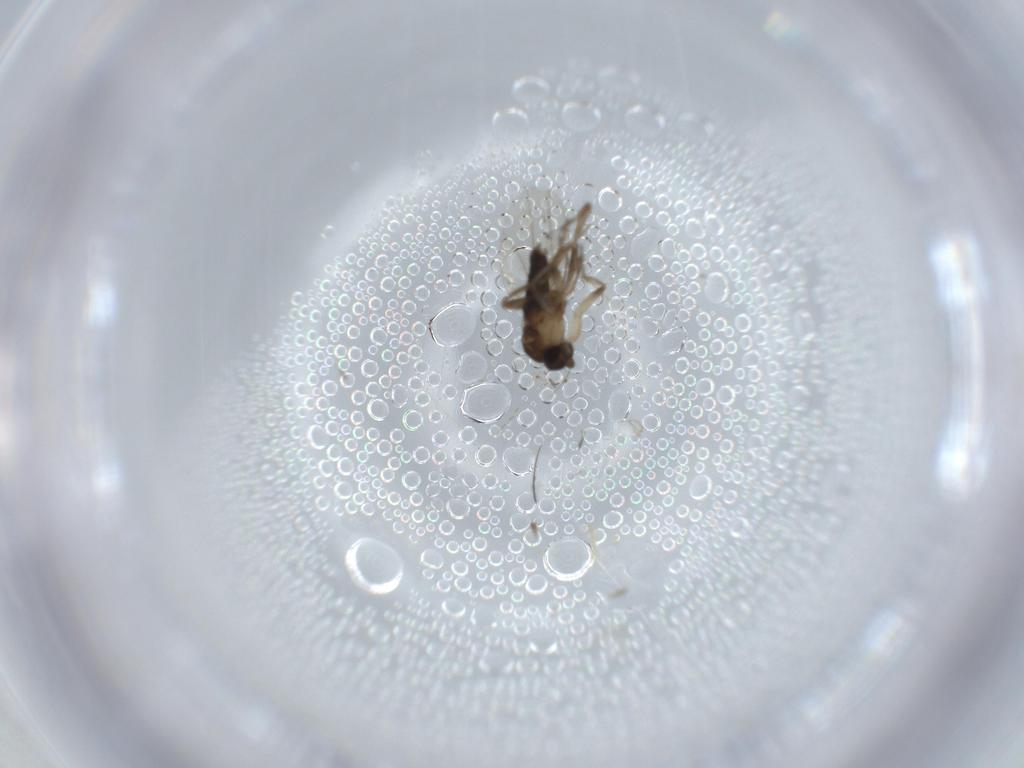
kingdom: Animalia
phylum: Arthropoda
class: Insecta
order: Diptera
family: Phoridae
